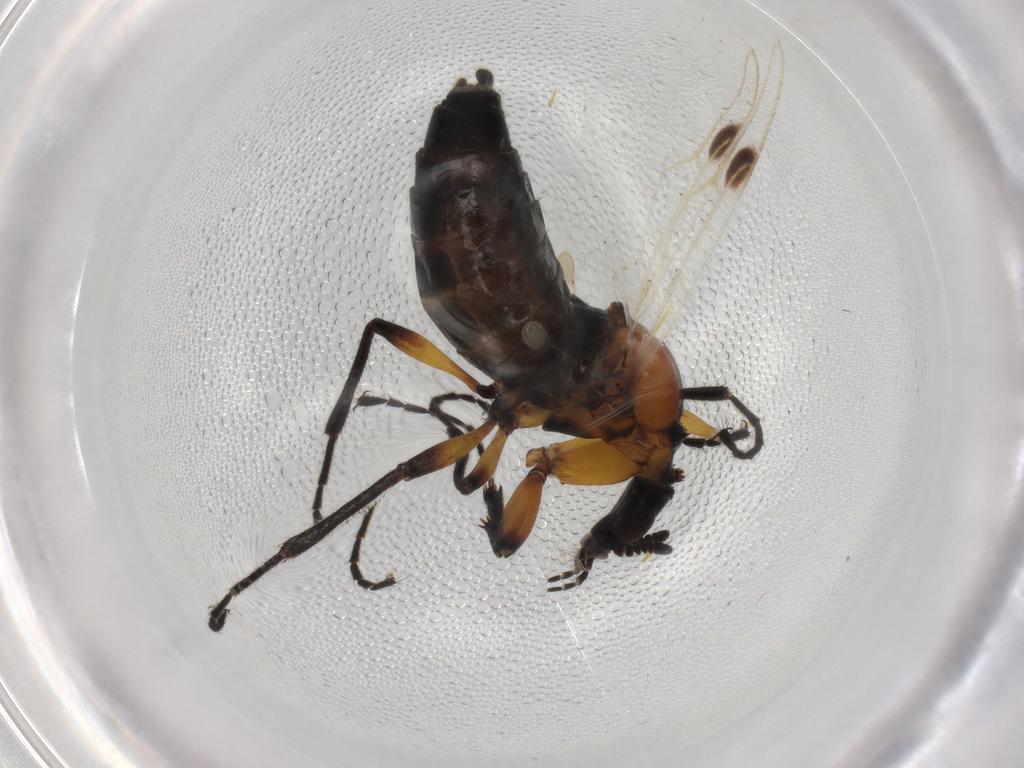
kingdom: Animalia
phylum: Arthropoda
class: Insecta
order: Diptera
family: Bibionidae
